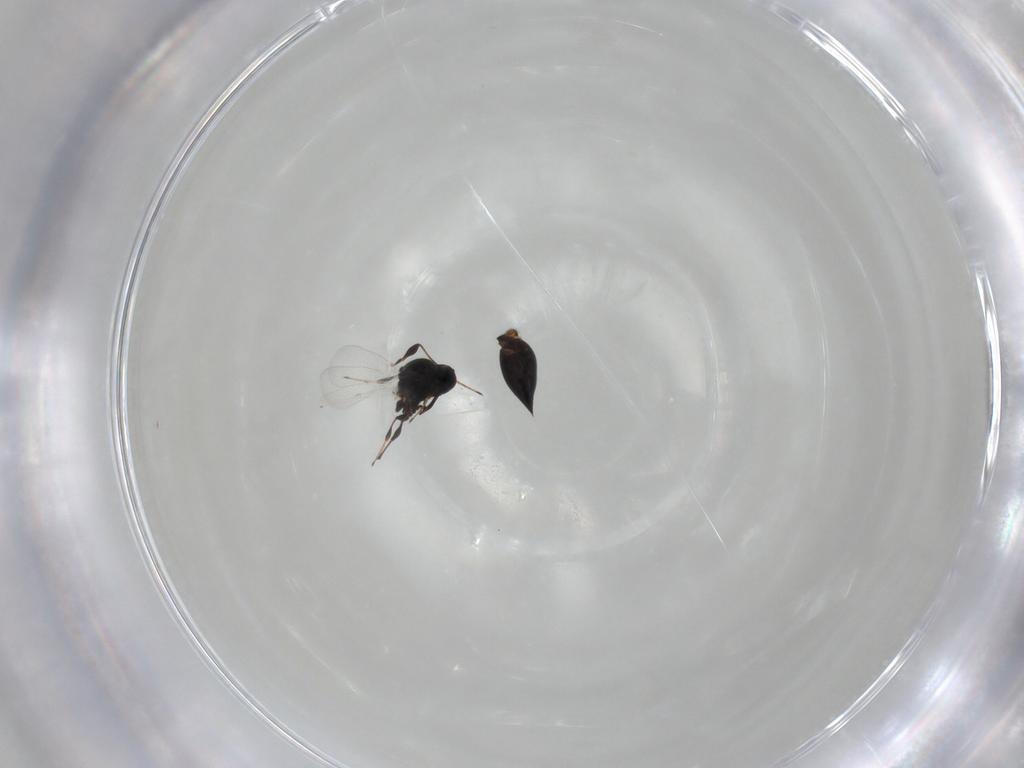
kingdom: Animalia
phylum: Arthropoda
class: Insecta
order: Hymenoptera
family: Platygastridae
